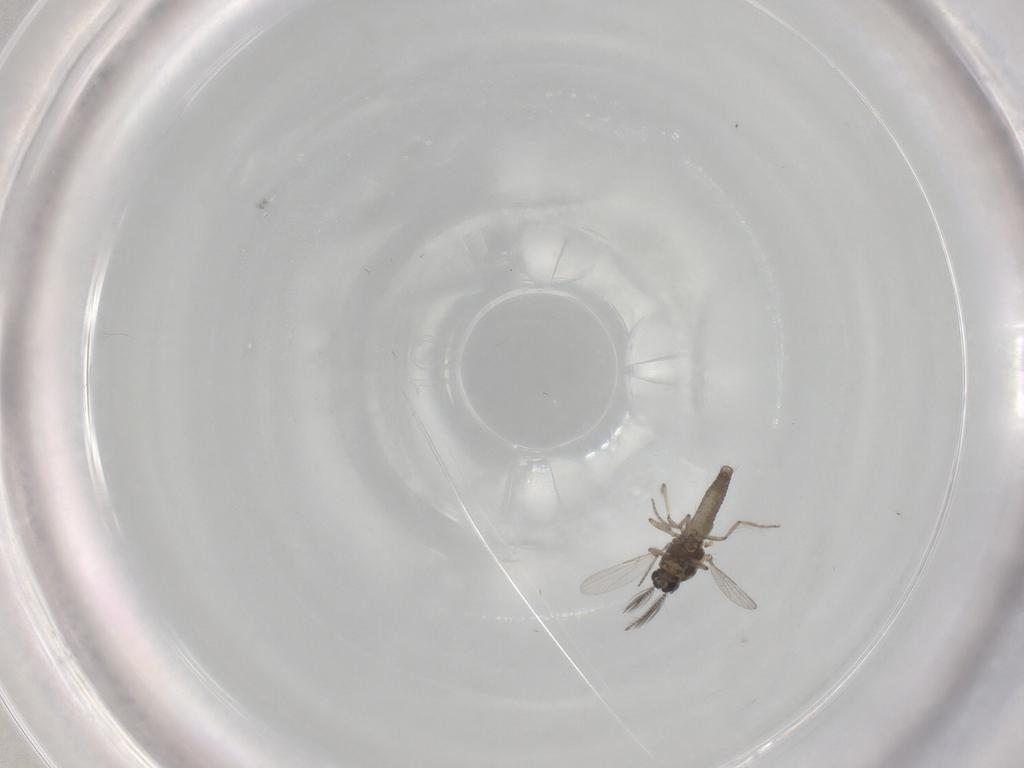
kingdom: Animalia
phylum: Arthropoda
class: Insecta
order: Diptera
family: Ceratopogonidae
